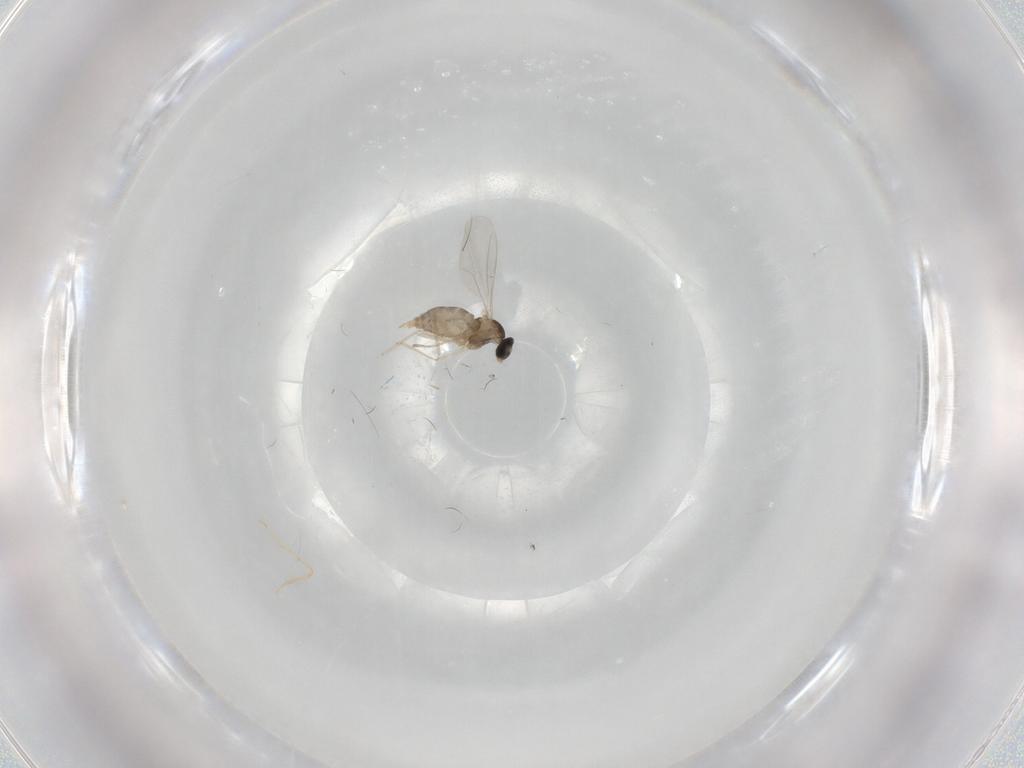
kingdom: Animalia
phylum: Arthropoda
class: Insecta
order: Diptera
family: Cecidomyiidae
